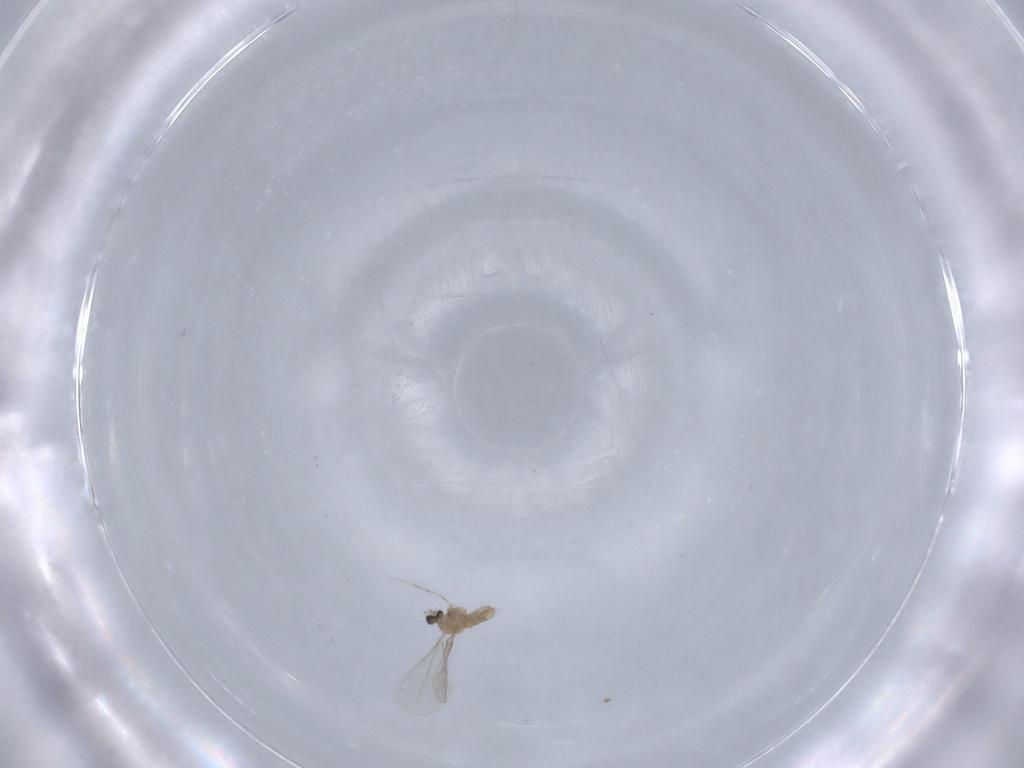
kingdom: Animalia
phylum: Arthropoda
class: Insecta
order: Diptera
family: Cecidomyiidae
